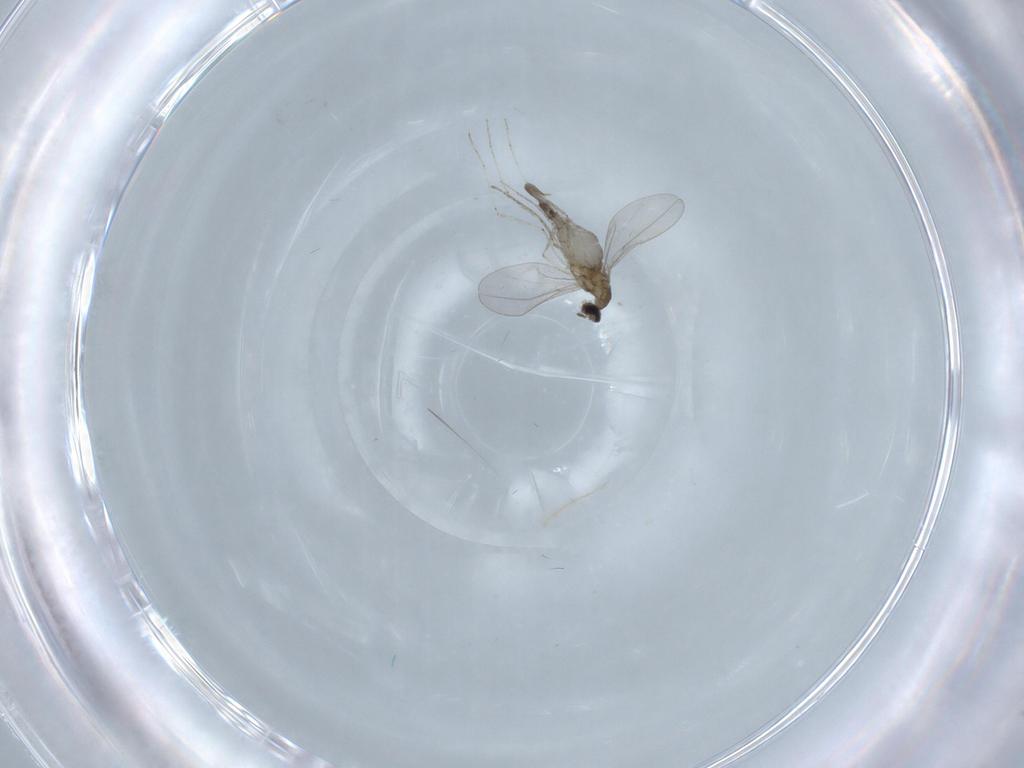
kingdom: Animalia
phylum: Arthropoda
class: Insecta
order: Diptera
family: Cecidomyiidae
